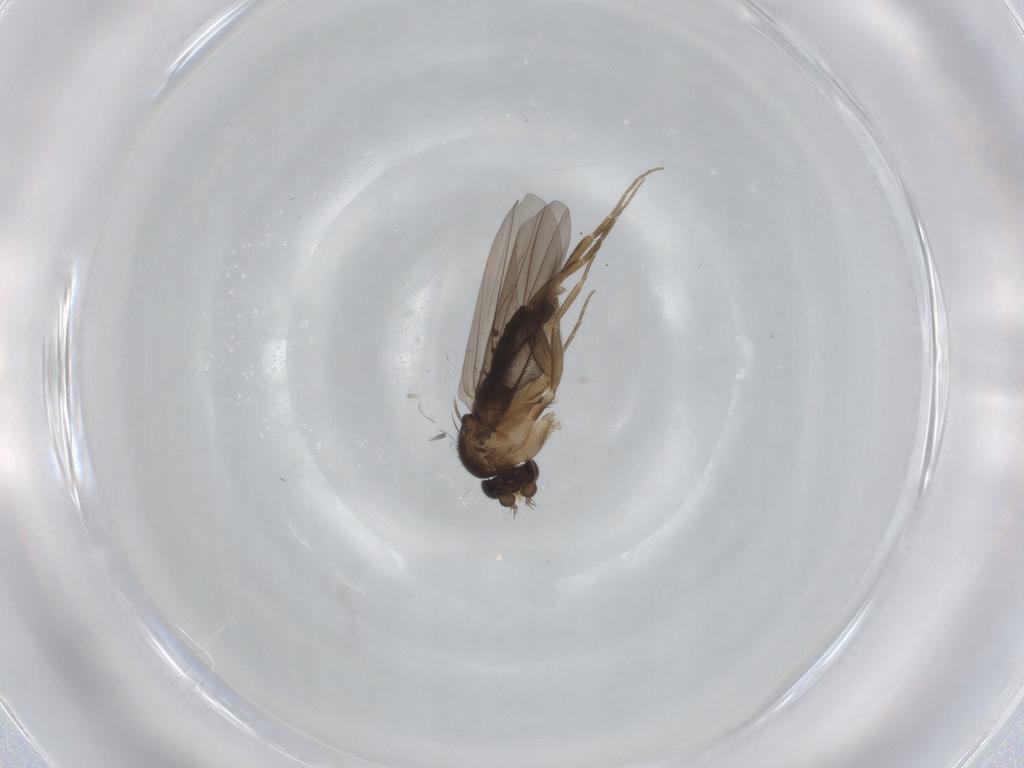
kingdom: Animalia
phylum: Arthropoda
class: Insecta
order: Diptera
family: Phoridae
